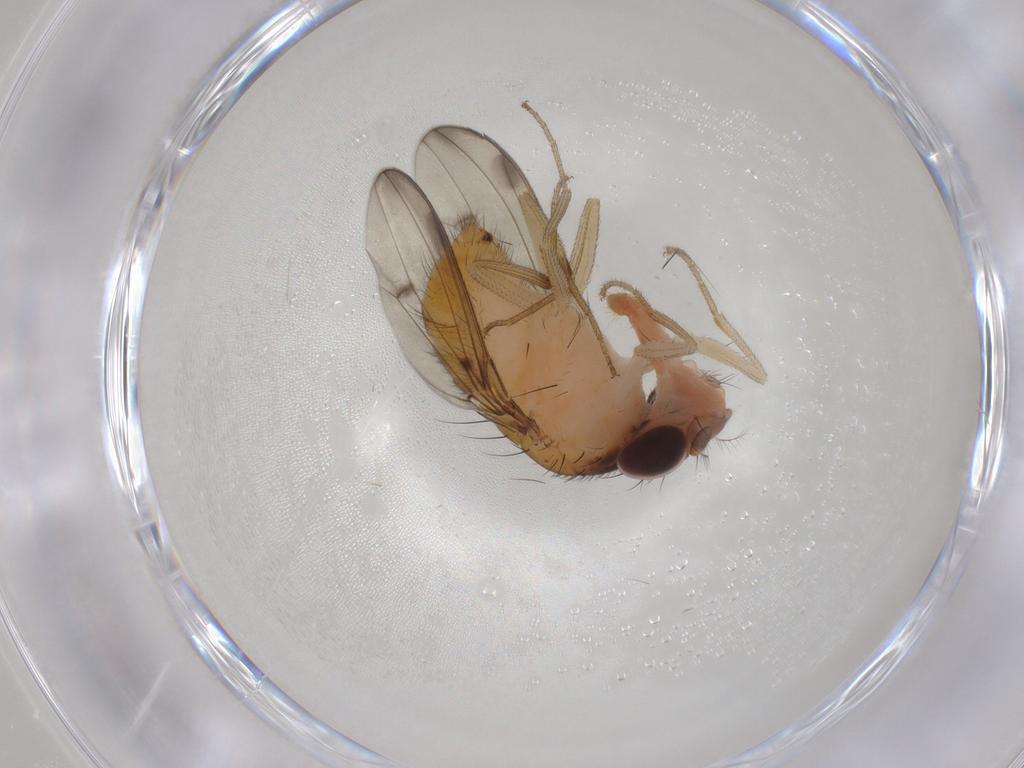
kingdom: Animalia
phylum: Arthropoda
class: Insecta
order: Diptera
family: Drosophilidae
